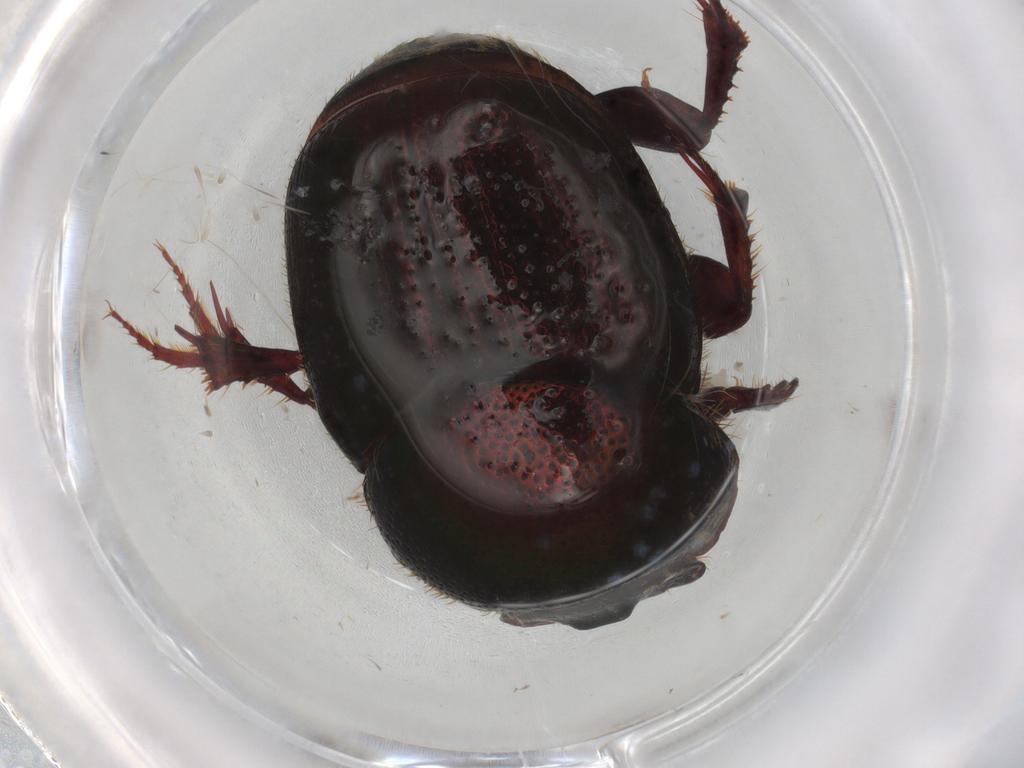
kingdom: Animalia
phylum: Arthropoda
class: Insecta
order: Coleoptera
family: Scarabaeidae
